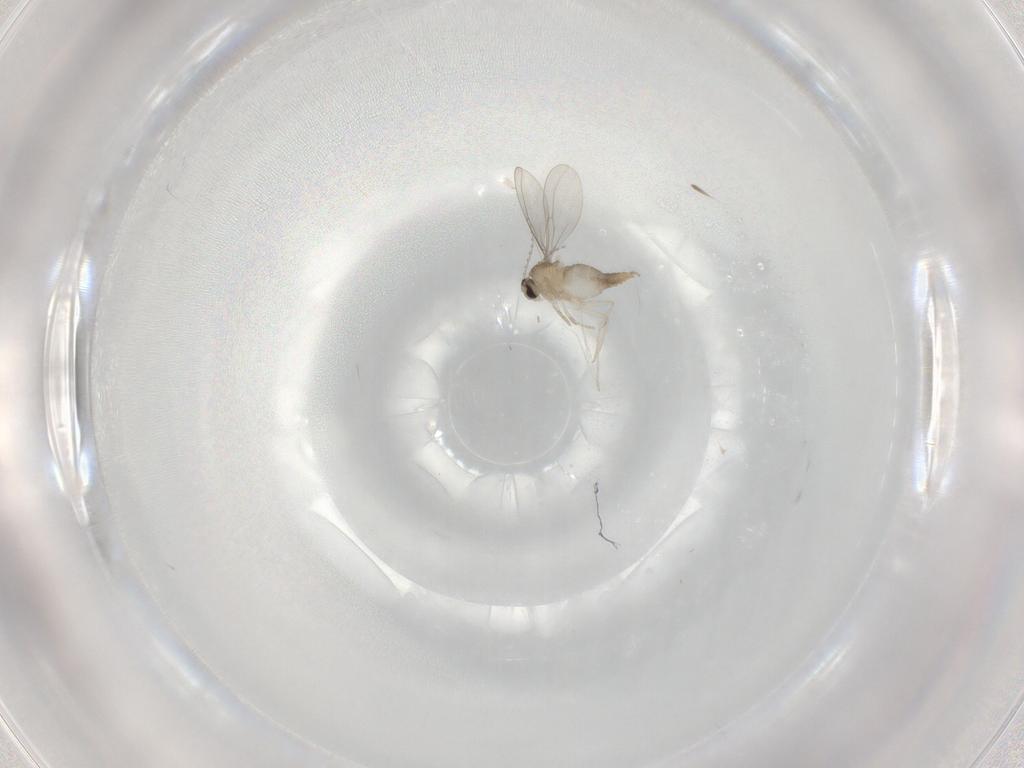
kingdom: Animalia
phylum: Arthropoda
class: Insecta
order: Diptera
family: Cecidomyiidae
